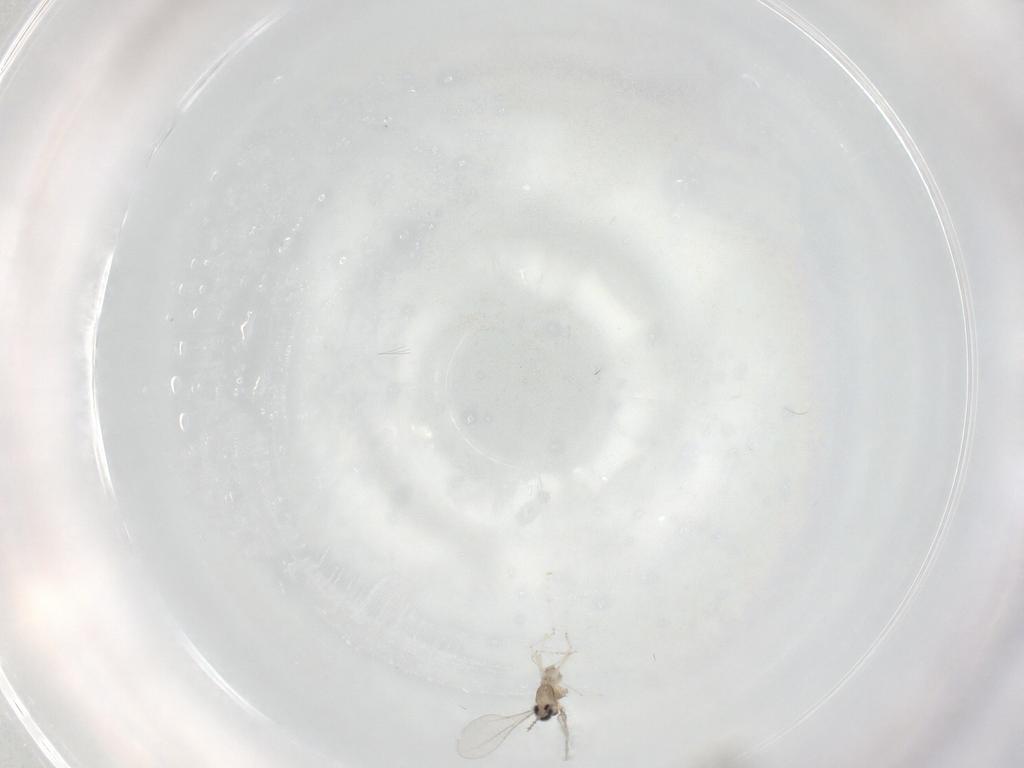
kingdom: Animalia
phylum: Arthropoda
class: Insecta
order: Diptera
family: Cecidomyiidae
